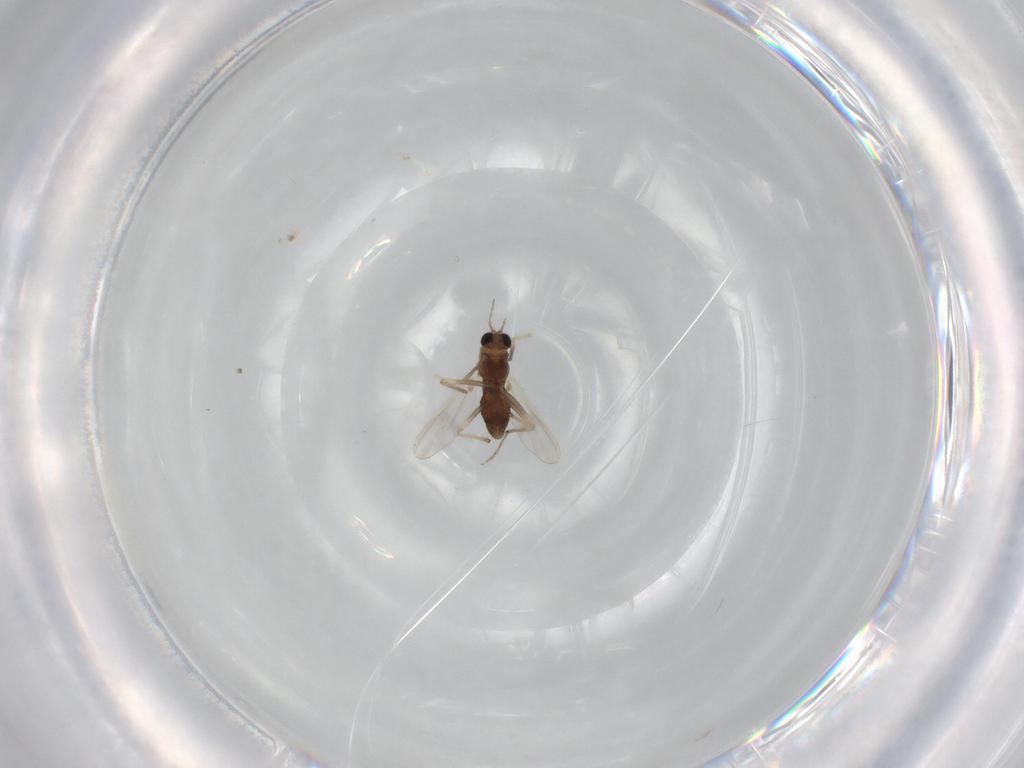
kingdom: Animalia
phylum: Arthropoda
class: Insecta
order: Diptera
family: Chironomidae
